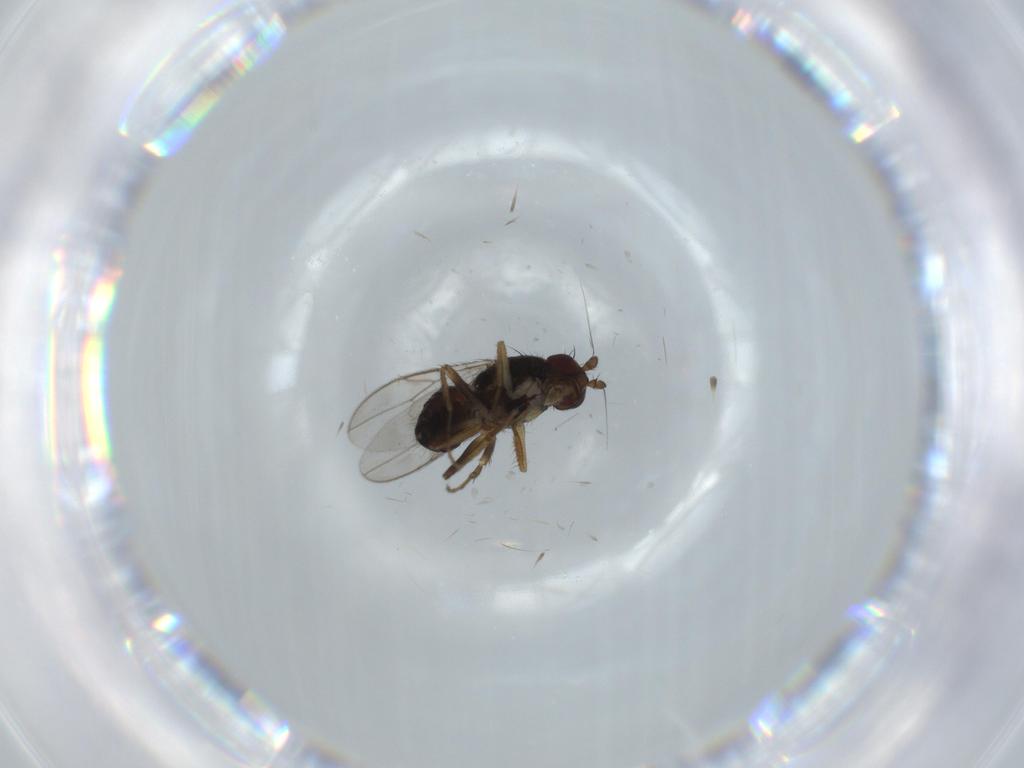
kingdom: Animalia
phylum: Arthropoda
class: Insecta
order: Diptera
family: Sphaeroceridae
